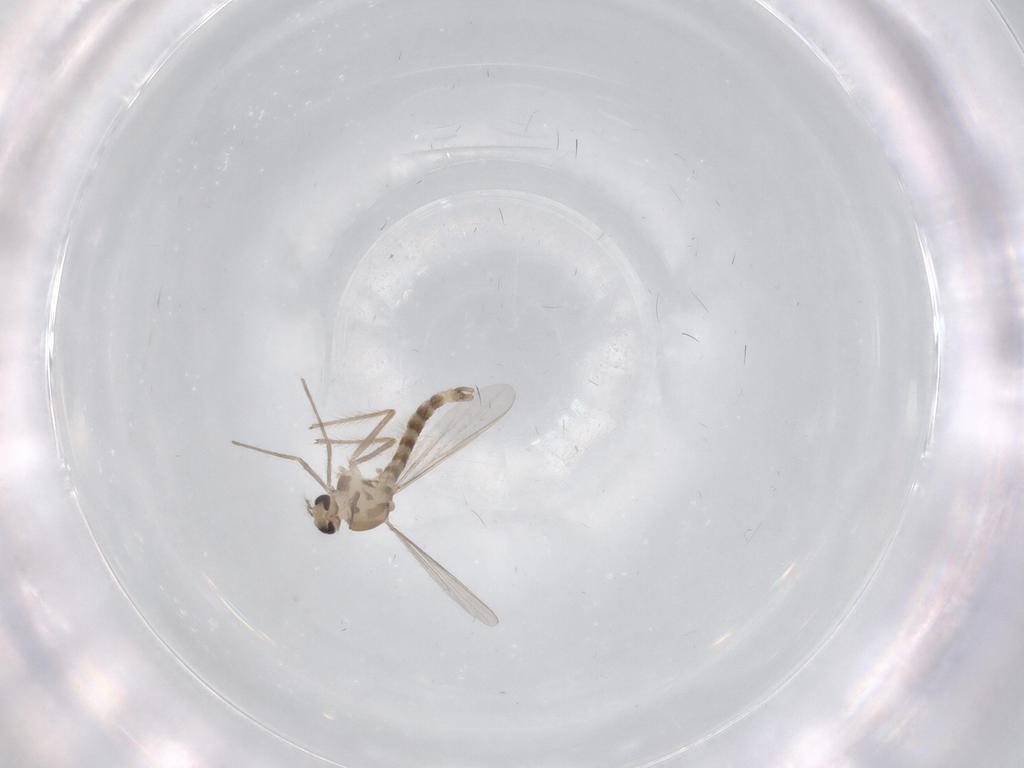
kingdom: Animalia
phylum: Arthropoda
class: Insecta
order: Diptera
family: Chironomidae
